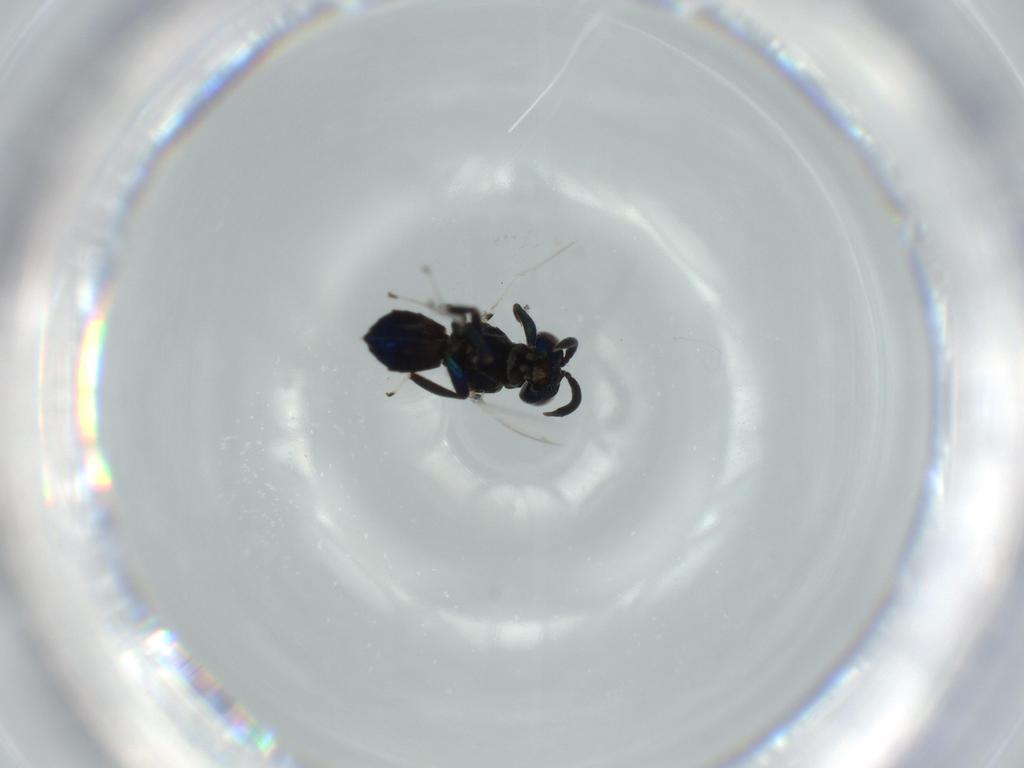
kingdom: Animalia
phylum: Arthropoda
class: Insecta
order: Hymenoptera
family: Eupelmidae
